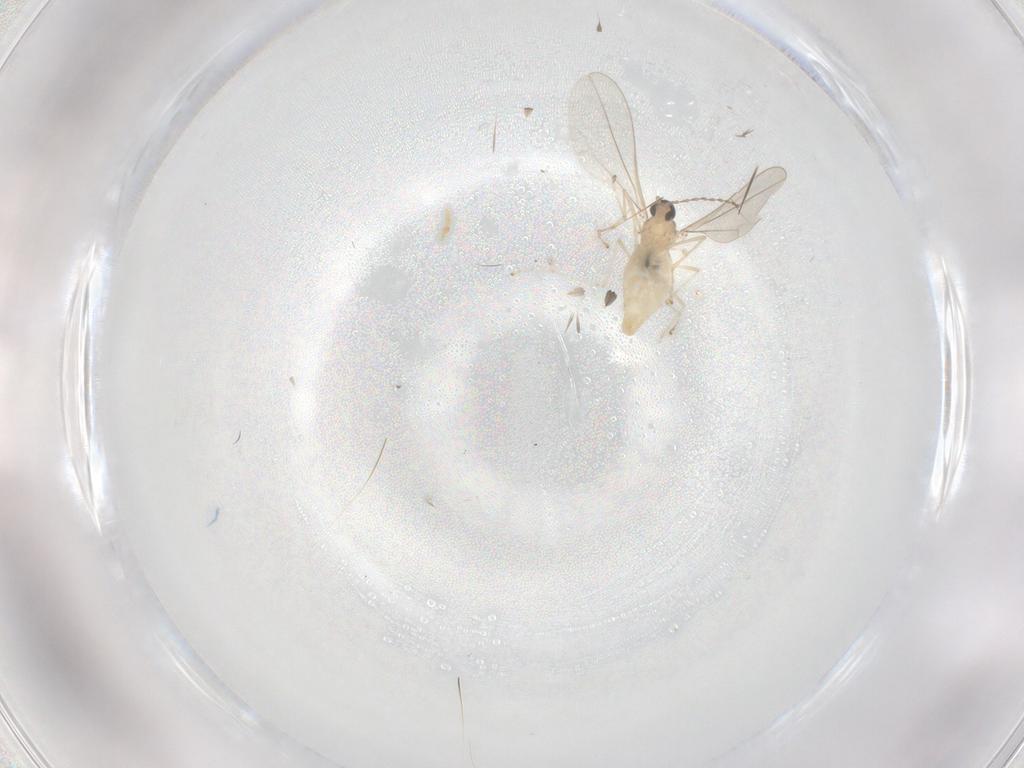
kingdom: Animalia
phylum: Arthropoda
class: Insecta
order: Diptera
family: Cecidomyiidae
